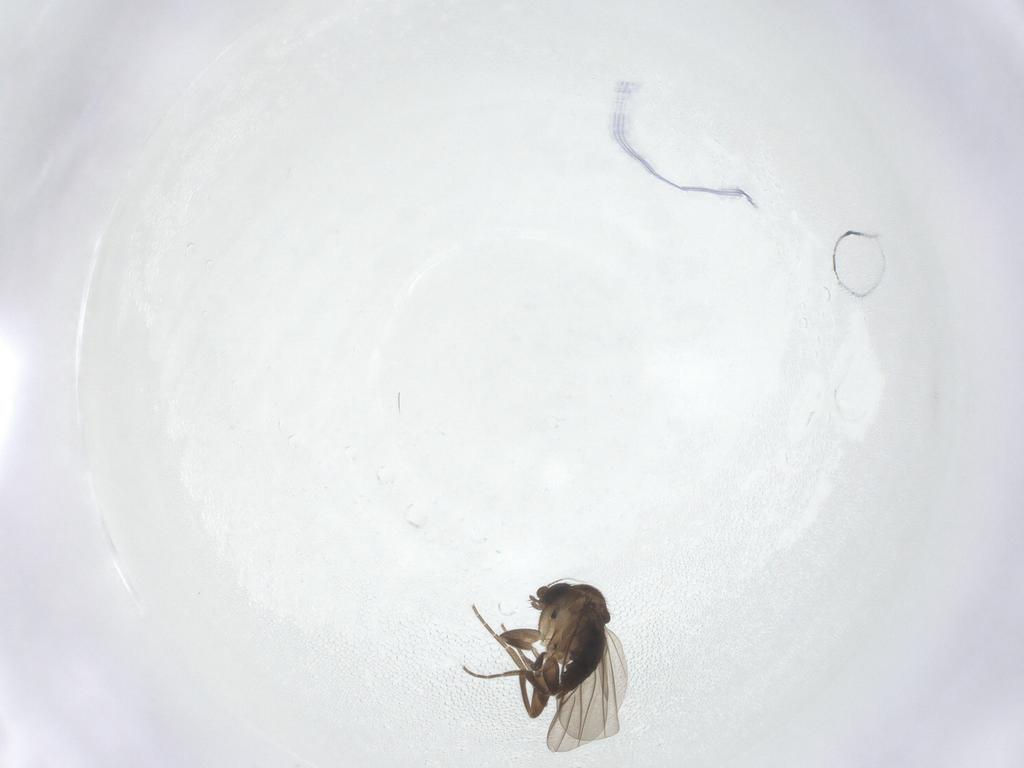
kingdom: Animalia
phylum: Arthropoda
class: Insecta
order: Diptera
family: Phoridae
